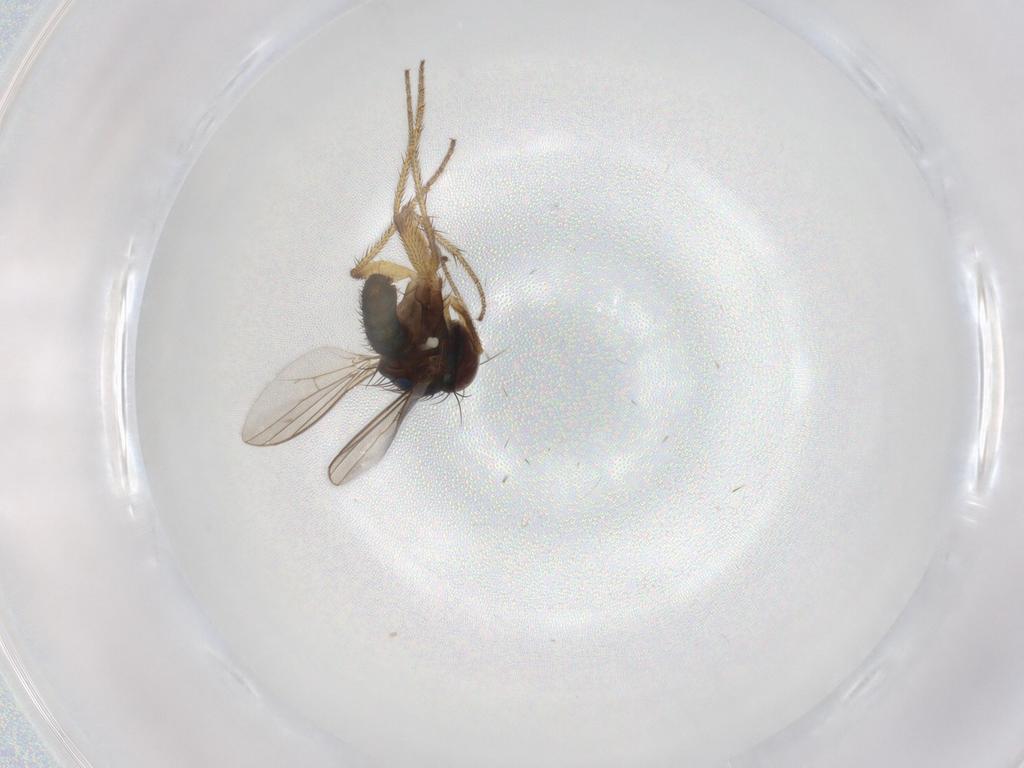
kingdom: Animalia
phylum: Arthropoda
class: Insecta
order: Diptera
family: Dolichopodidae
